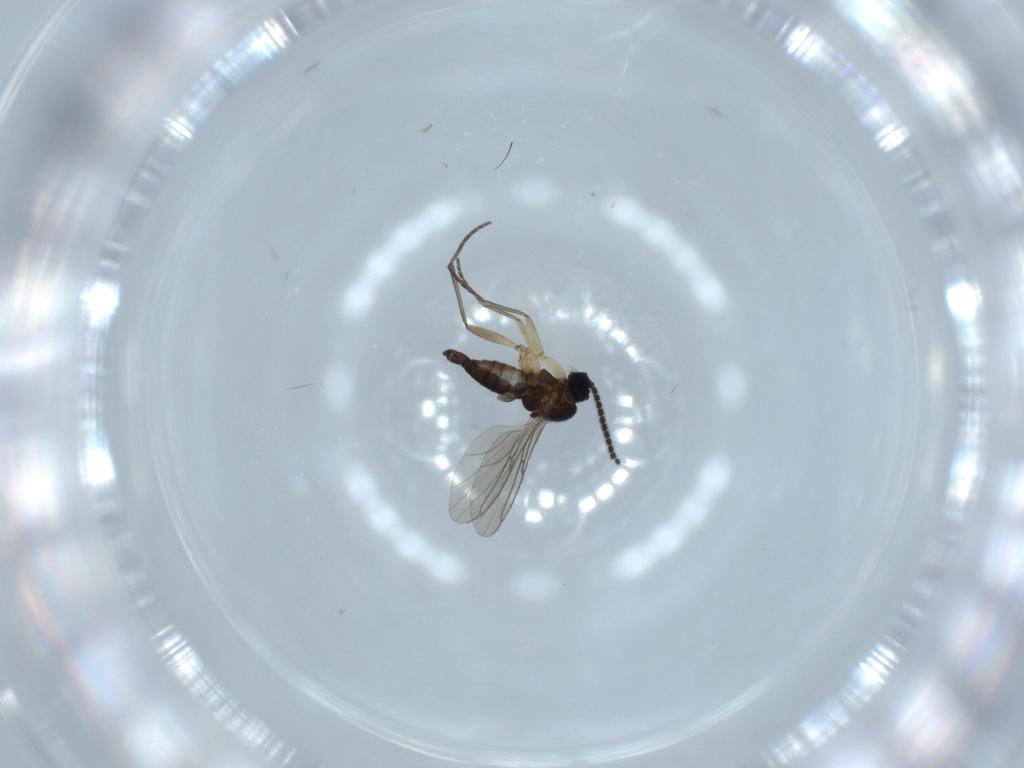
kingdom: Animalia
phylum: Arthropoda
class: Insecta
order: Diptera
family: Sciaridae
